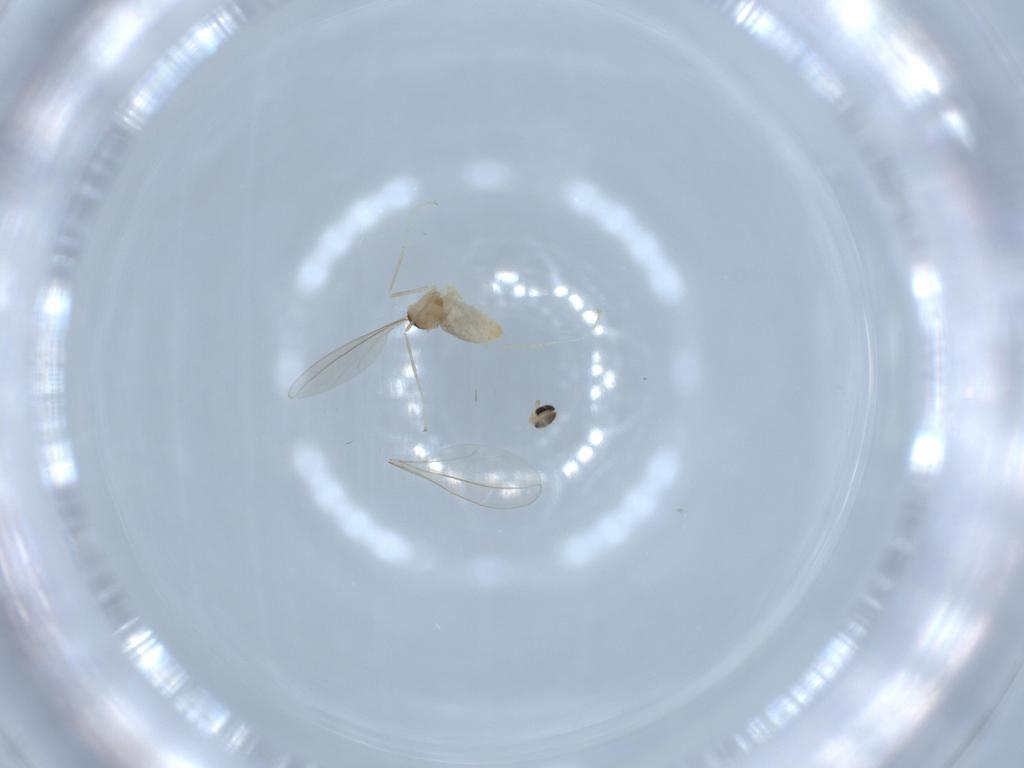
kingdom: Animalia
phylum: Arthropoda
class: Insecta
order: Diptera
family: Cecidomyiidae
